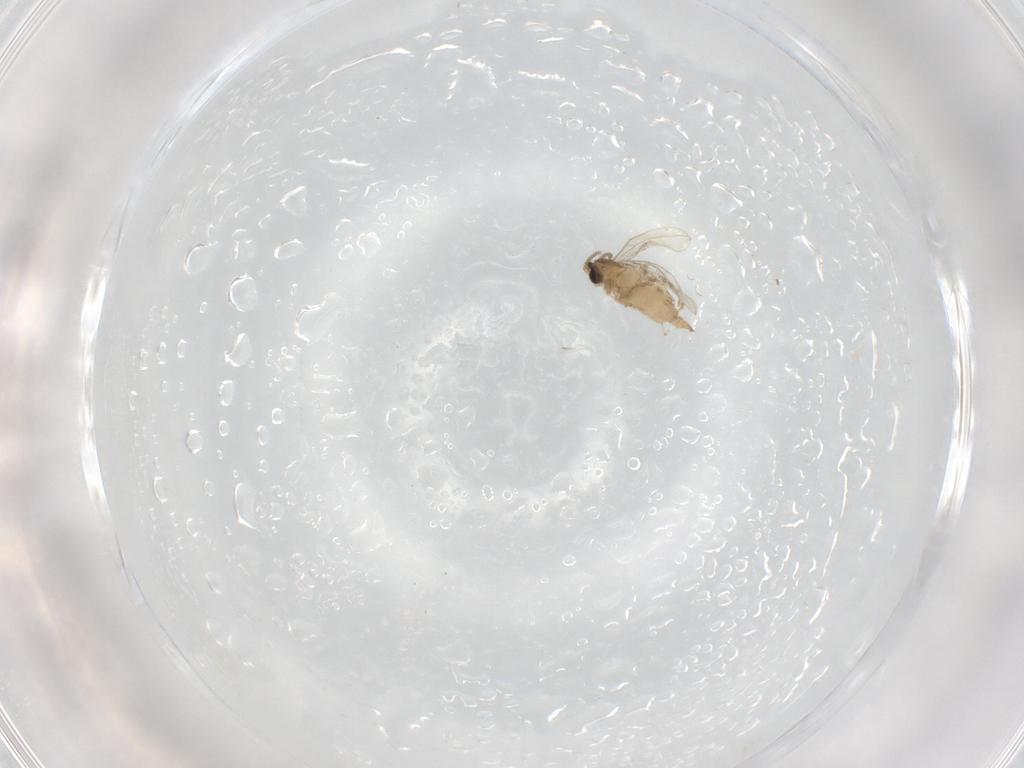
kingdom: Animalia
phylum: Arthropoda
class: Insecta
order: Diptera
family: Cecidomyiidae
